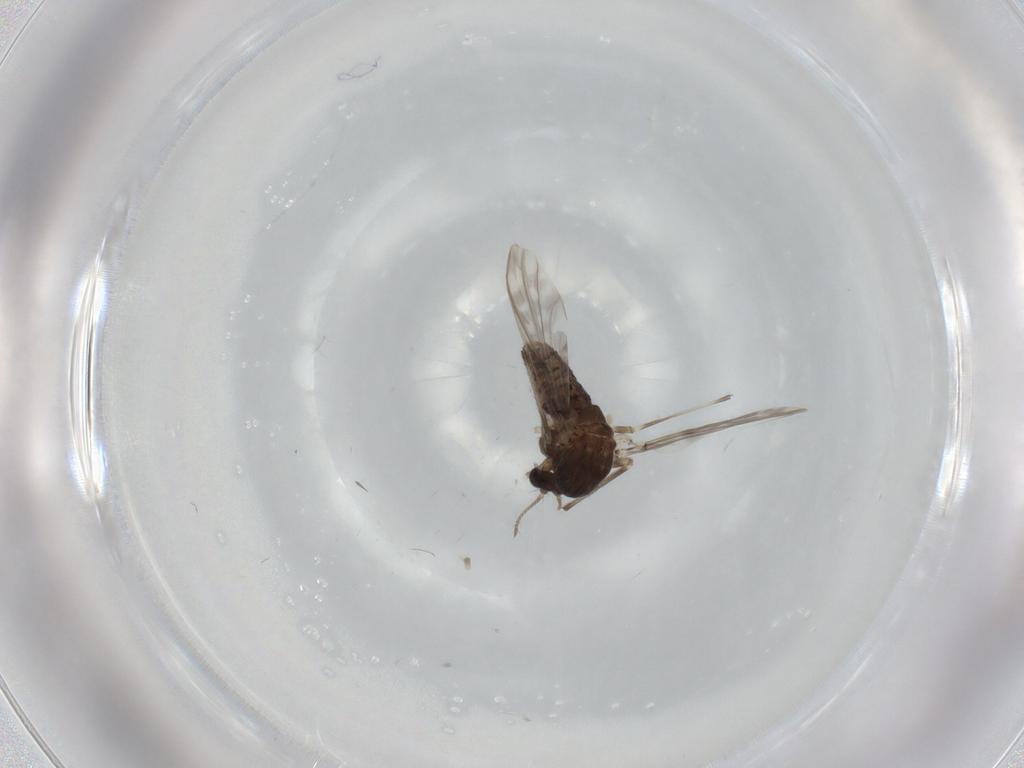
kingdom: Animalia
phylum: Arthropoda
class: Insecta
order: Diptera
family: Chironomidae
